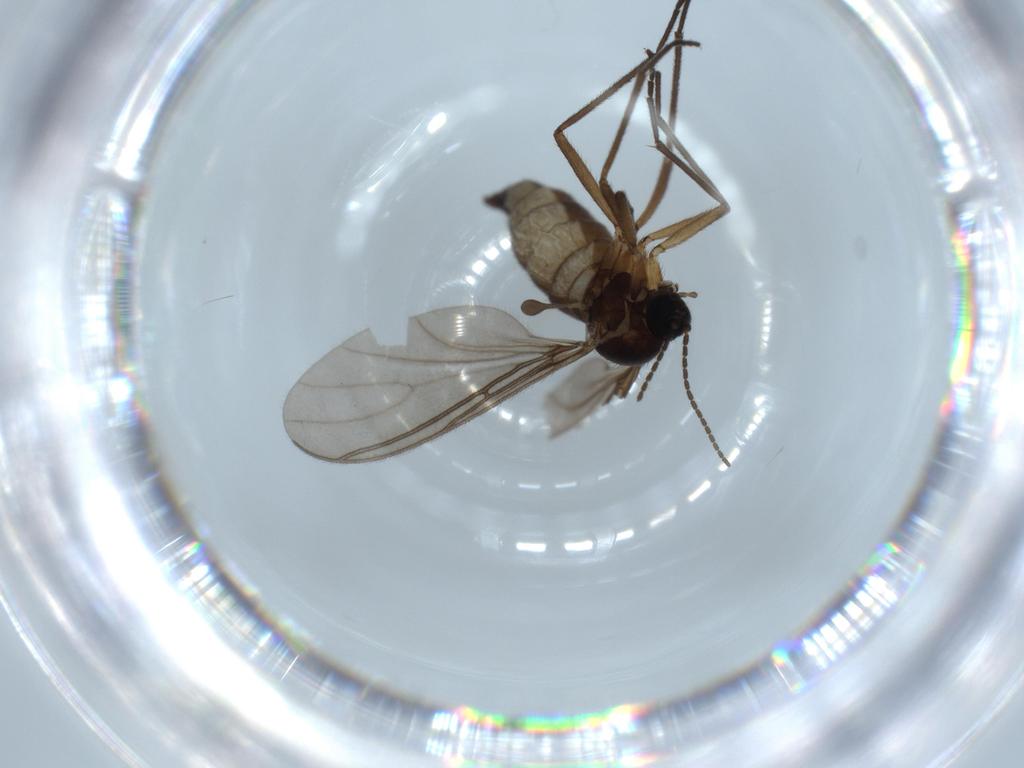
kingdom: Animalia
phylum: Arthropoda
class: Insecta
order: Diptera
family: Sciaridae
